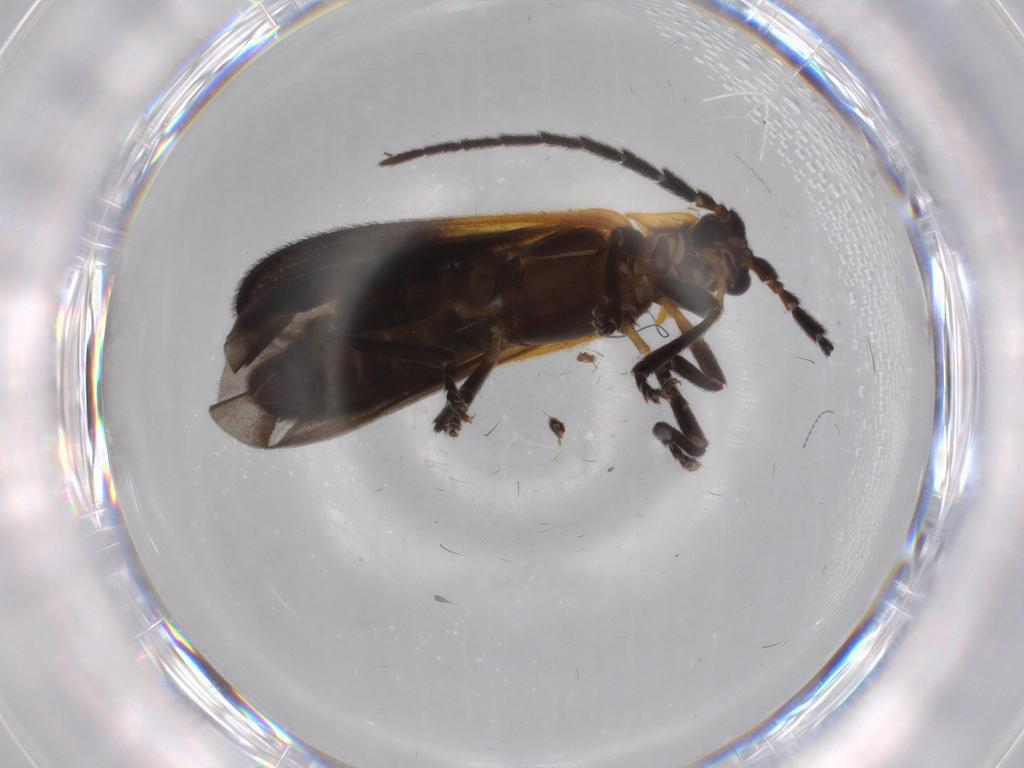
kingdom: Animalia
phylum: Arthropoda
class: Insecta
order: Coleoptera
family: Lycidae
